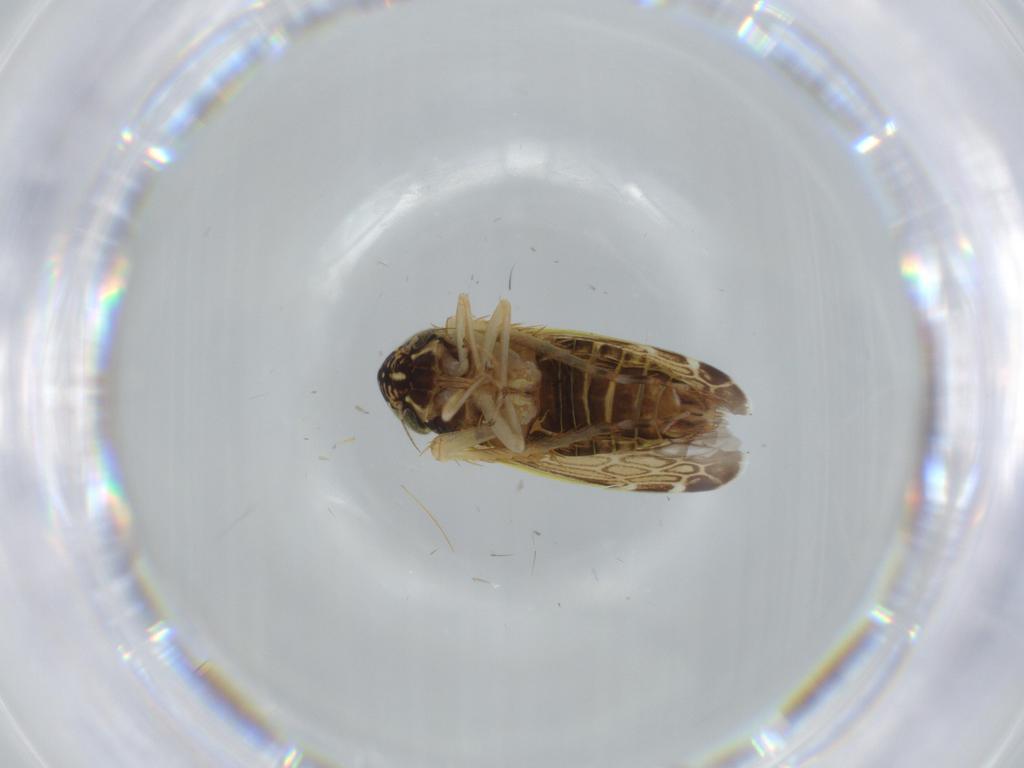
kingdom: Animalia
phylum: Arthropoda
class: Insecta
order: Hemiptera
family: Cicadellidae
